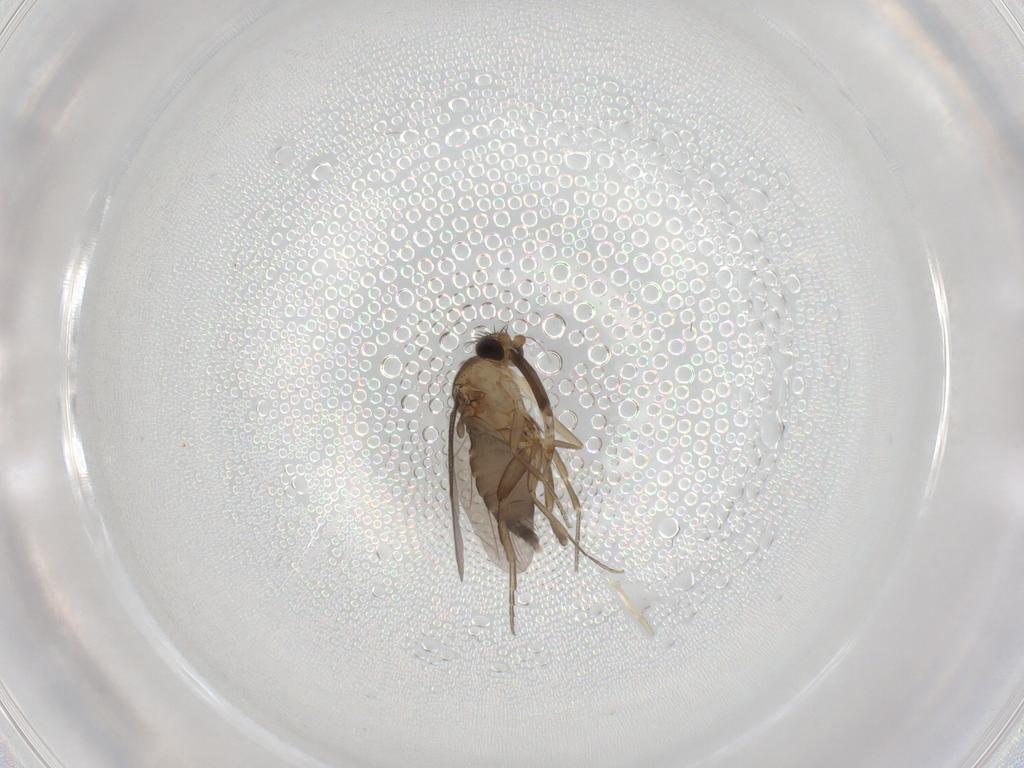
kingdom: Animalia
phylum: Arthropoda
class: Insecta
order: Diptera
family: Chironomidae
